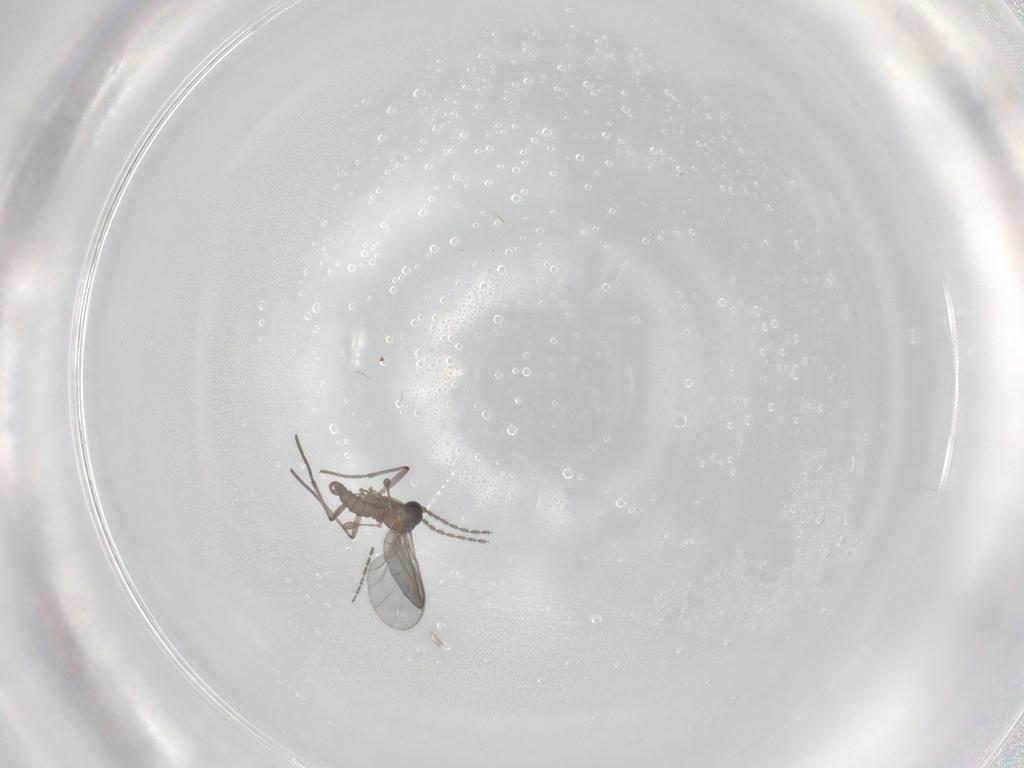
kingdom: Animalia
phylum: Arthropoda
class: Insecta
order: Diptera
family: Sciaridae
